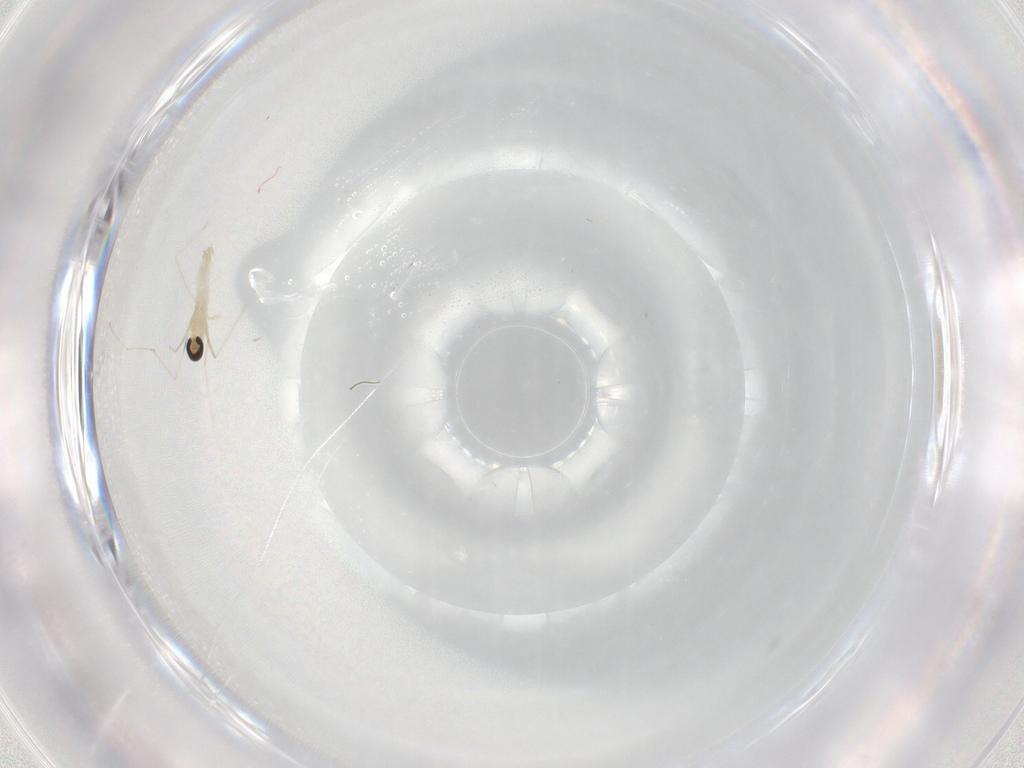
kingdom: Animalia
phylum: Arthropoda
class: Insecta
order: Diptera
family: Cecidomyiidae
